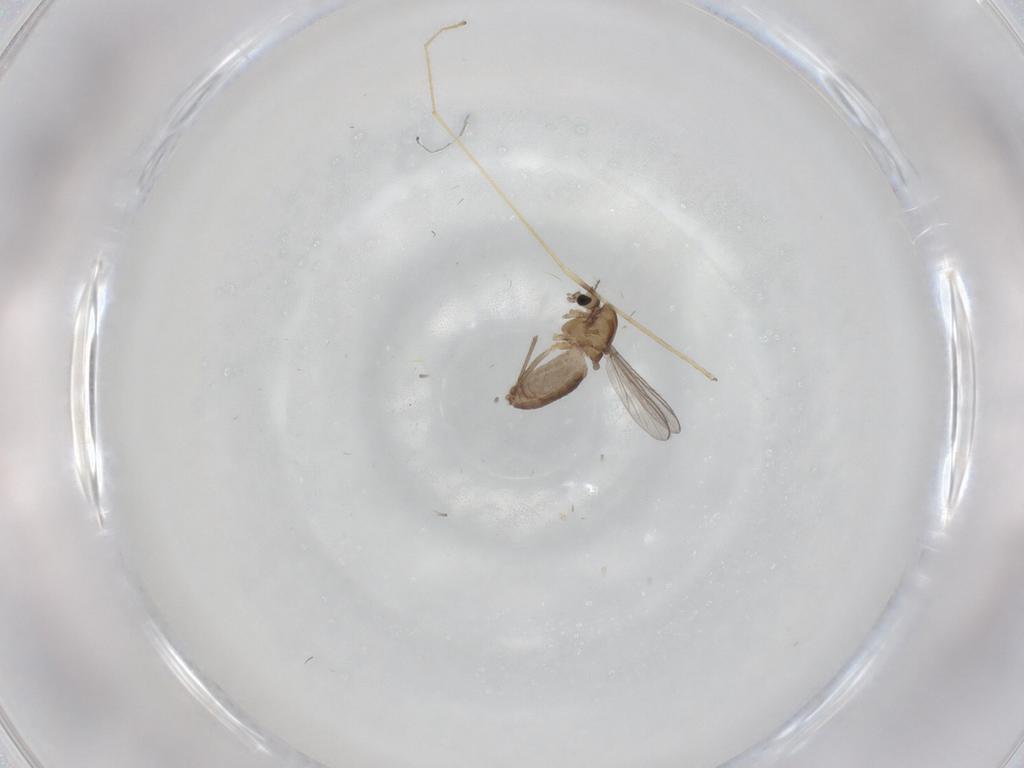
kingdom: Animalia
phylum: Arthropoda
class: Insecta
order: Diptera
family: Chironomidae
